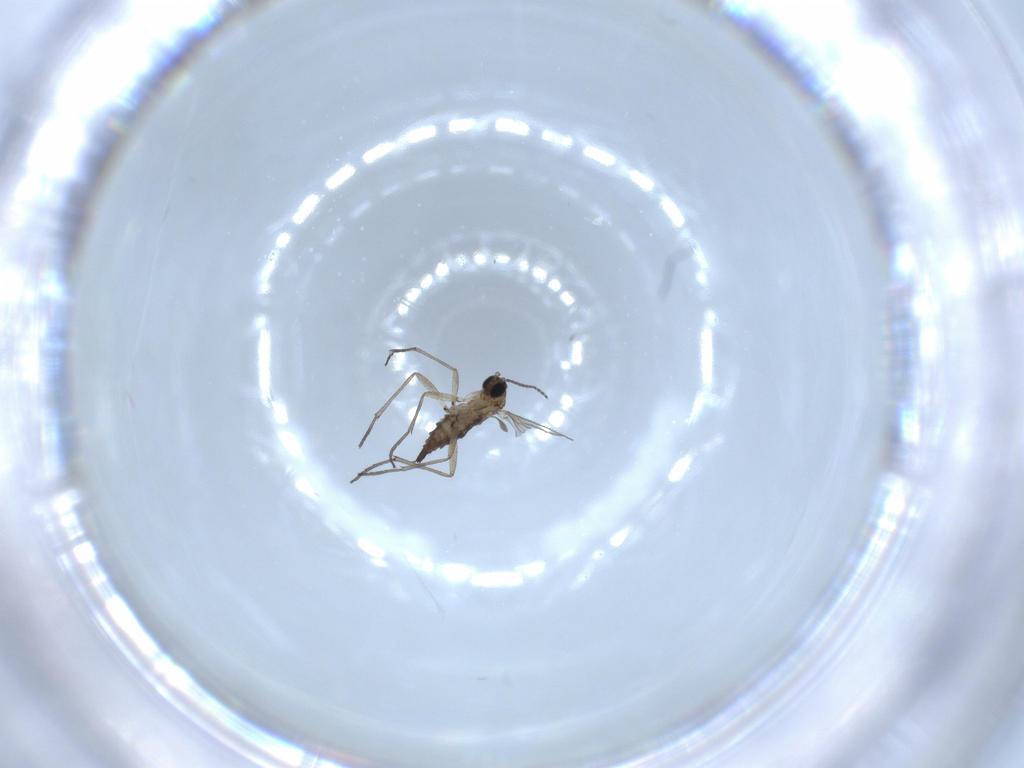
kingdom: Animalia
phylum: Arthropoda
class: Insecta
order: Diptera
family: Sciaridae
